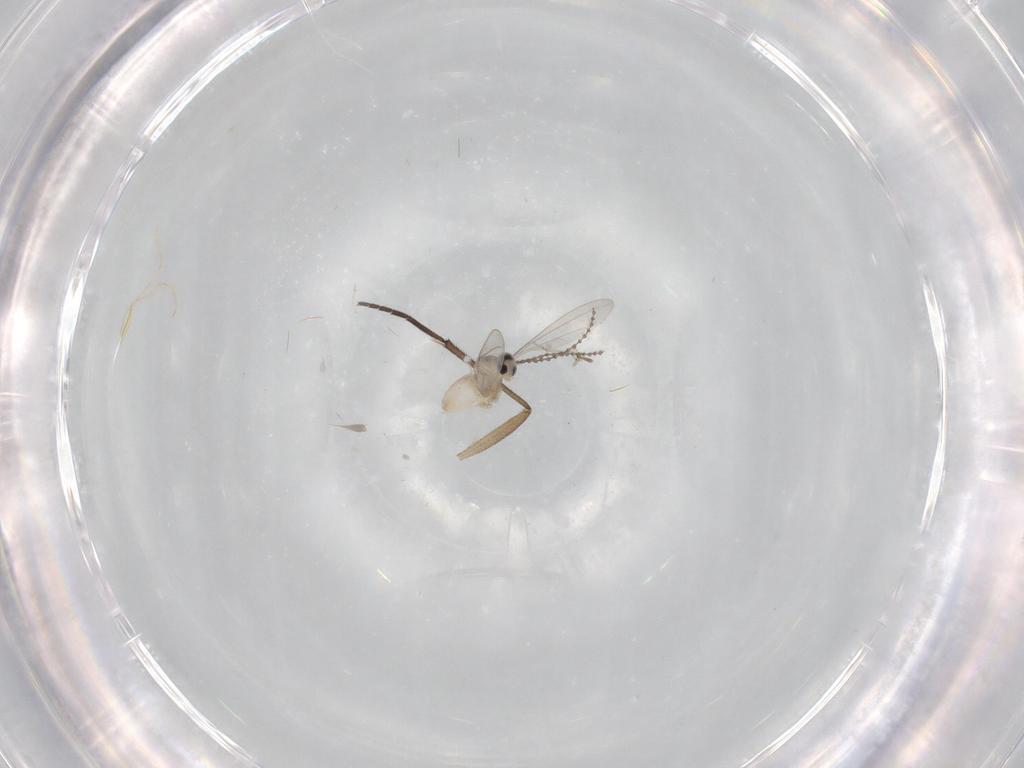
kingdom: Animalia
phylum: Arthropoda
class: Insecta
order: Diptera
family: Cecidomyiidae
